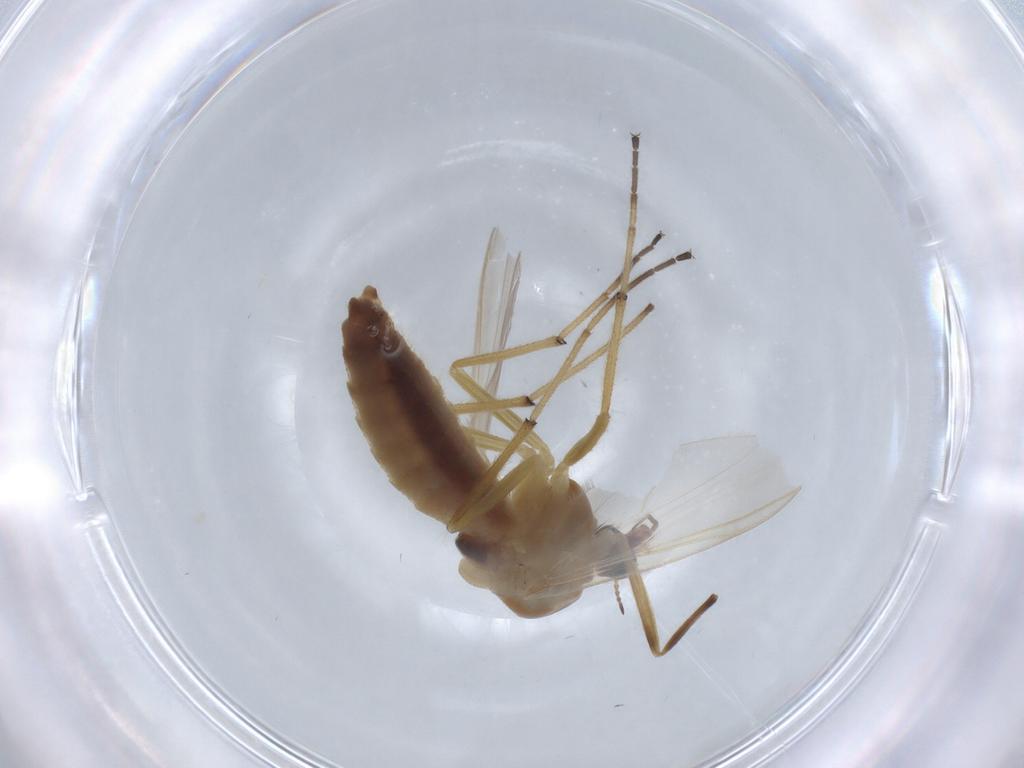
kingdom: Animalia
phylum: Arthropoda
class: Insecta
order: Diptera
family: Chironomidae
